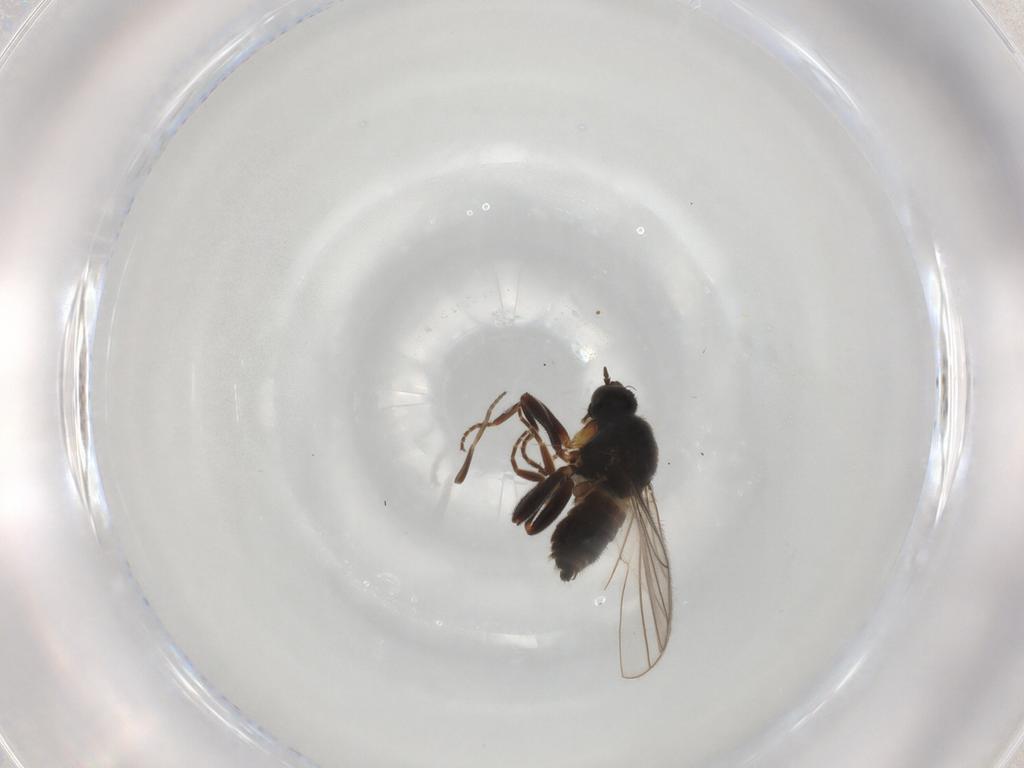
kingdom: Animalia
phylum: Arthropoda
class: Insecta
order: Diptera
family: Hybotidae
